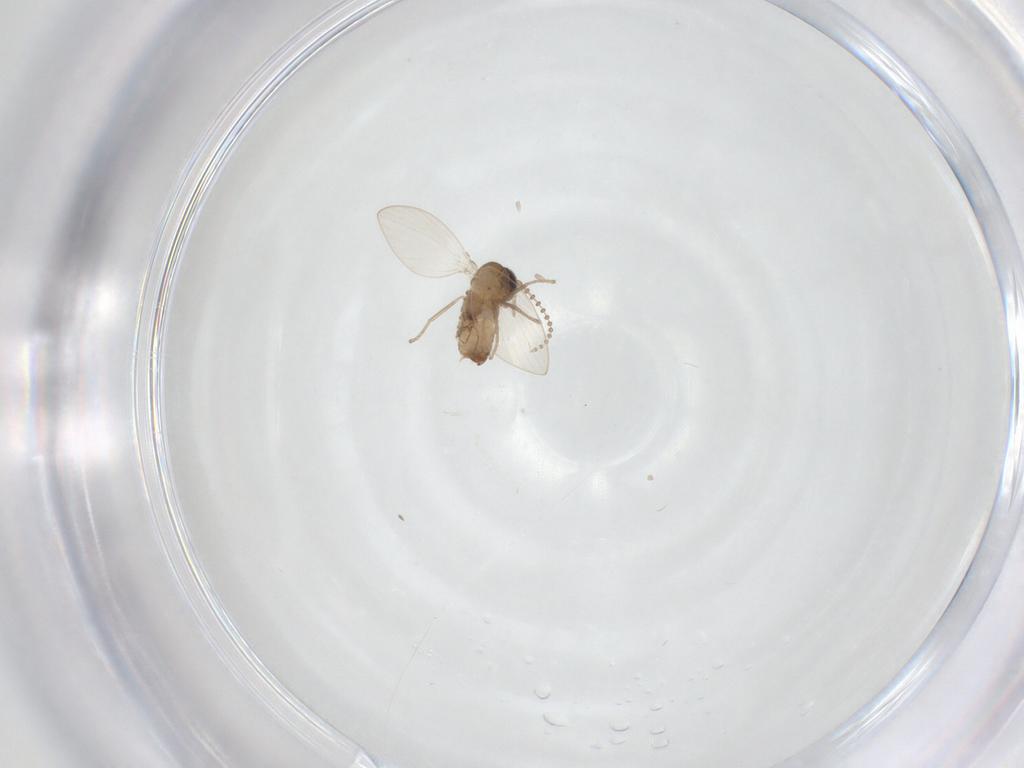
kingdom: Animalia
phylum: Arthropoda
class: Insecta
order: Diptera
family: Psychodidae
